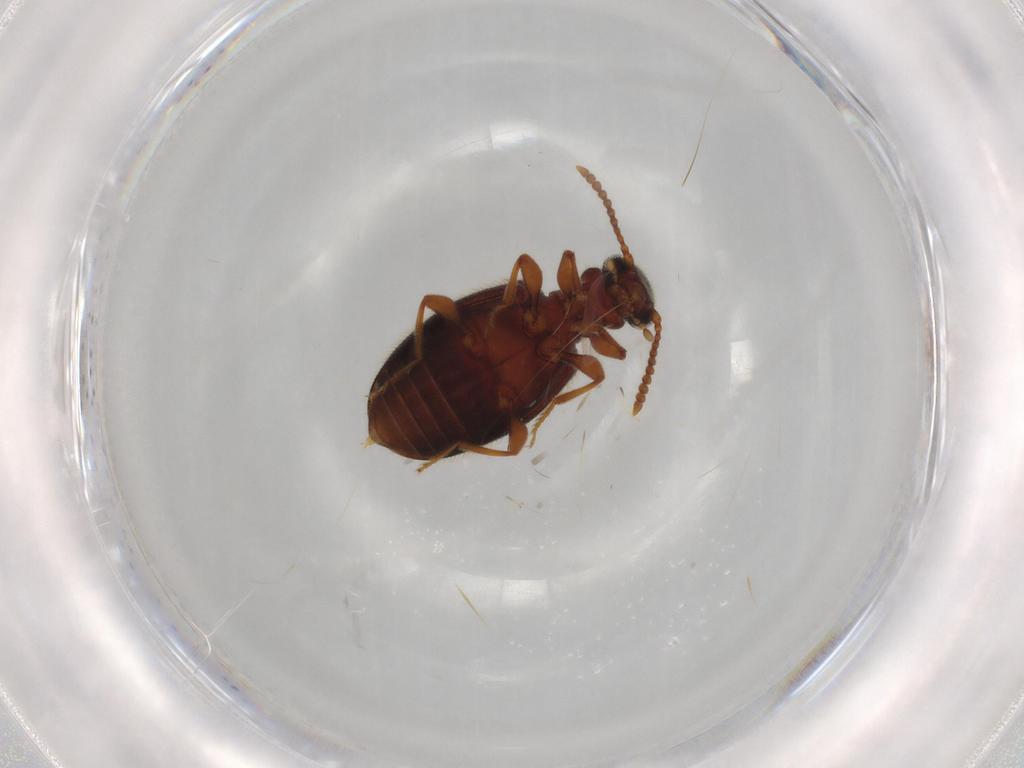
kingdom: Animalia
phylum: Arthropoda
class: Insecta
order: Coleoptera
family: Anthicidae
